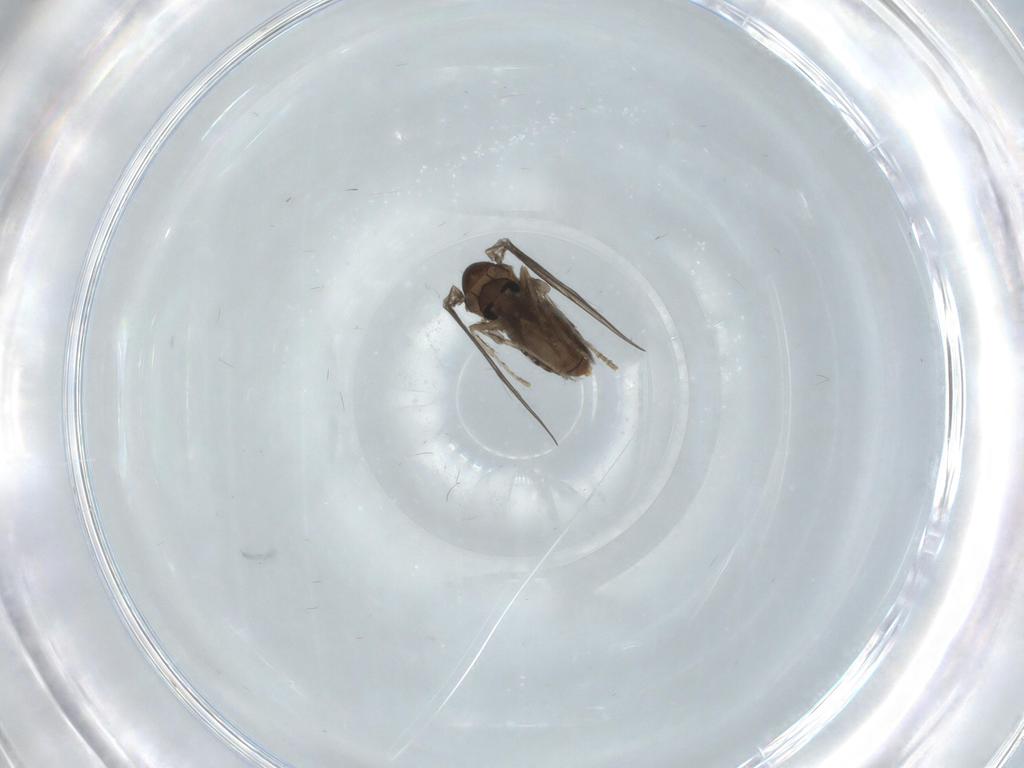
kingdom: Animalia
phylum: Arthropoda
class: Insecta
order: Diptera
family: Psychodidae
